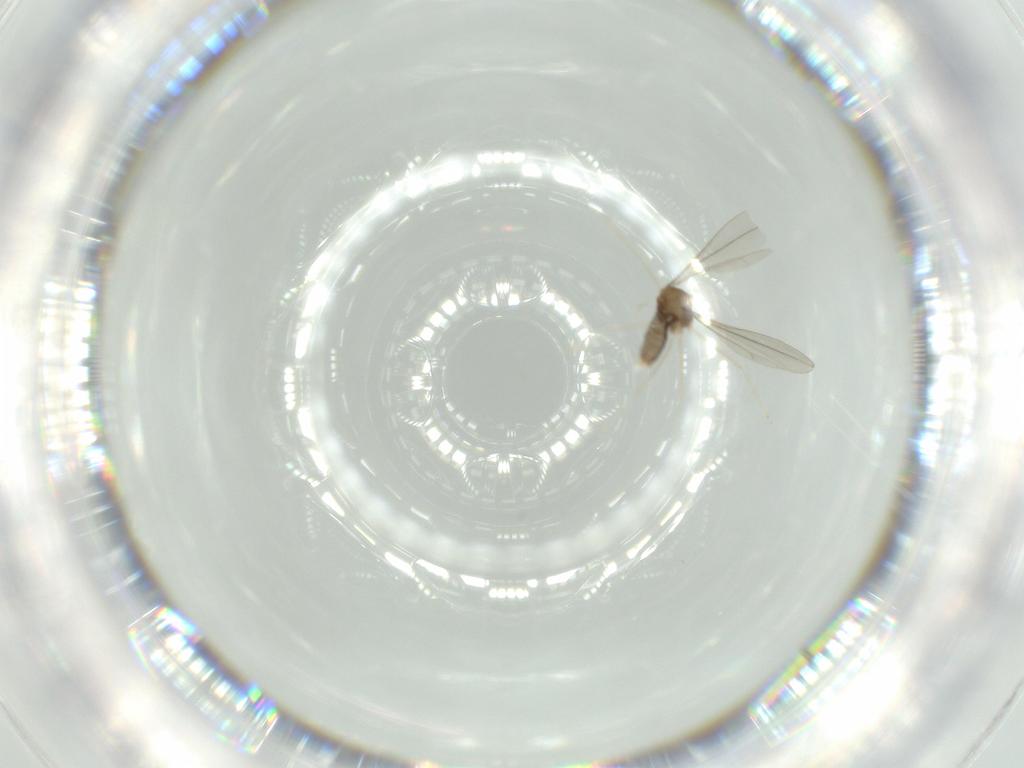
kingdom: Animalia
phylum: Arthropoda
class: Insecta
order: Diptera
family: Cecidomyiidae
